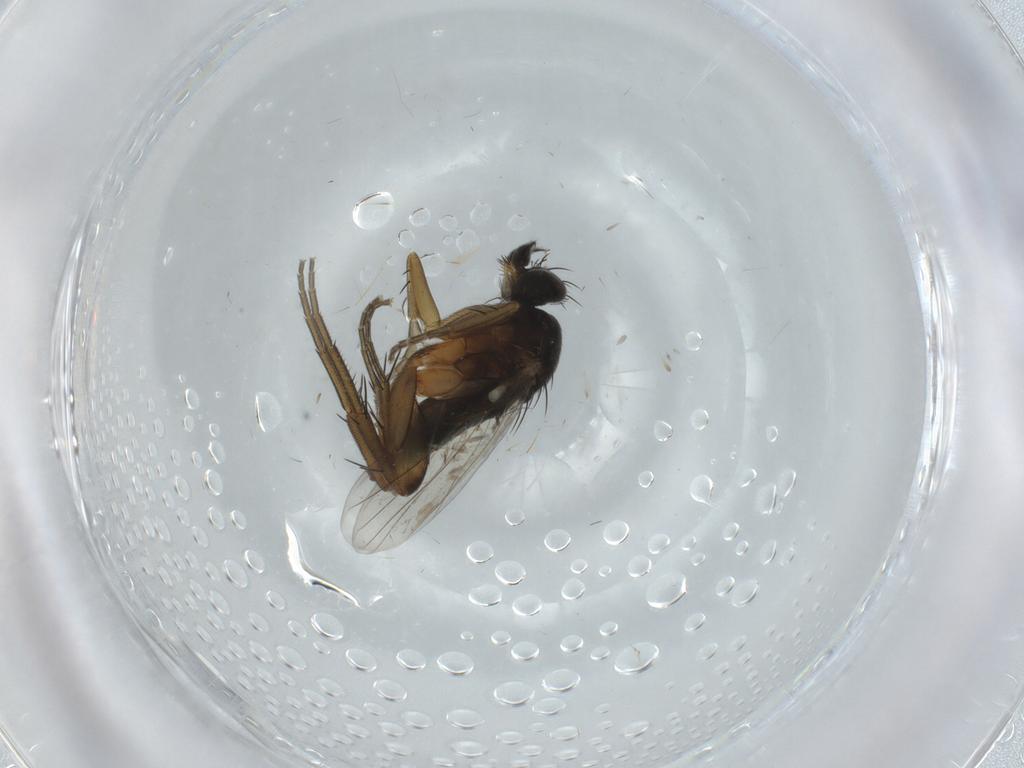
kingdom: Animalia
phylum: Arthropoda
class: Insecta
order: Diptera
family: Phoridae
